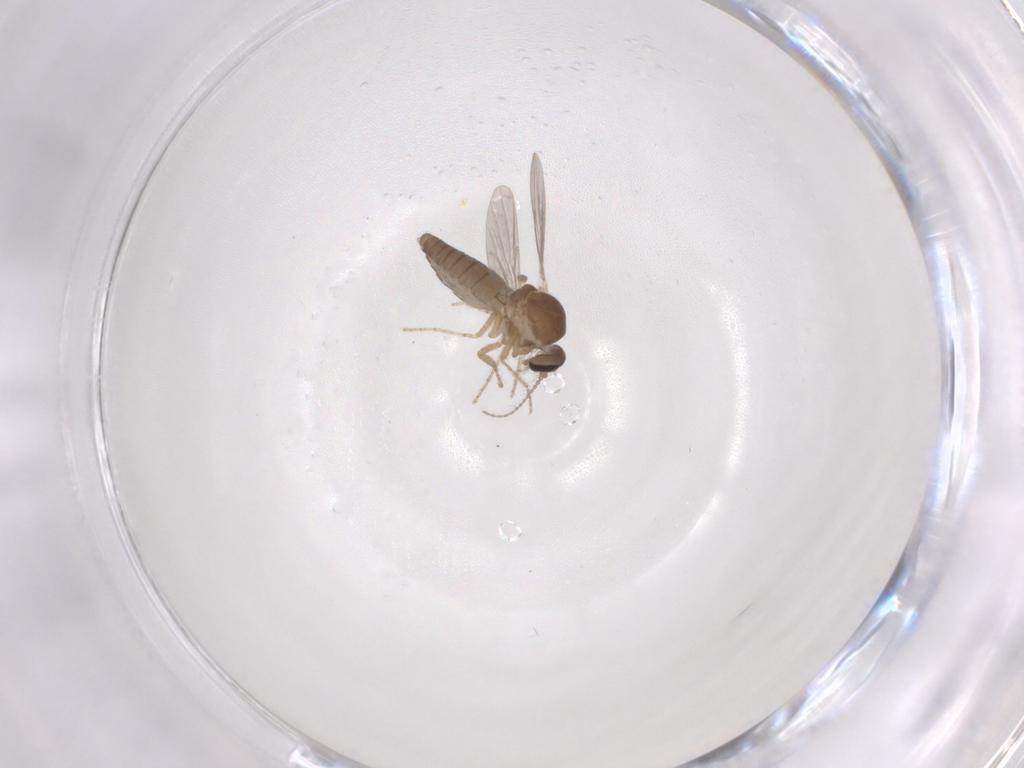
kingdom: Animalia
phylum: Arthropoda
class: Insecta
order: Diptera
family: Ceratopogonidae
